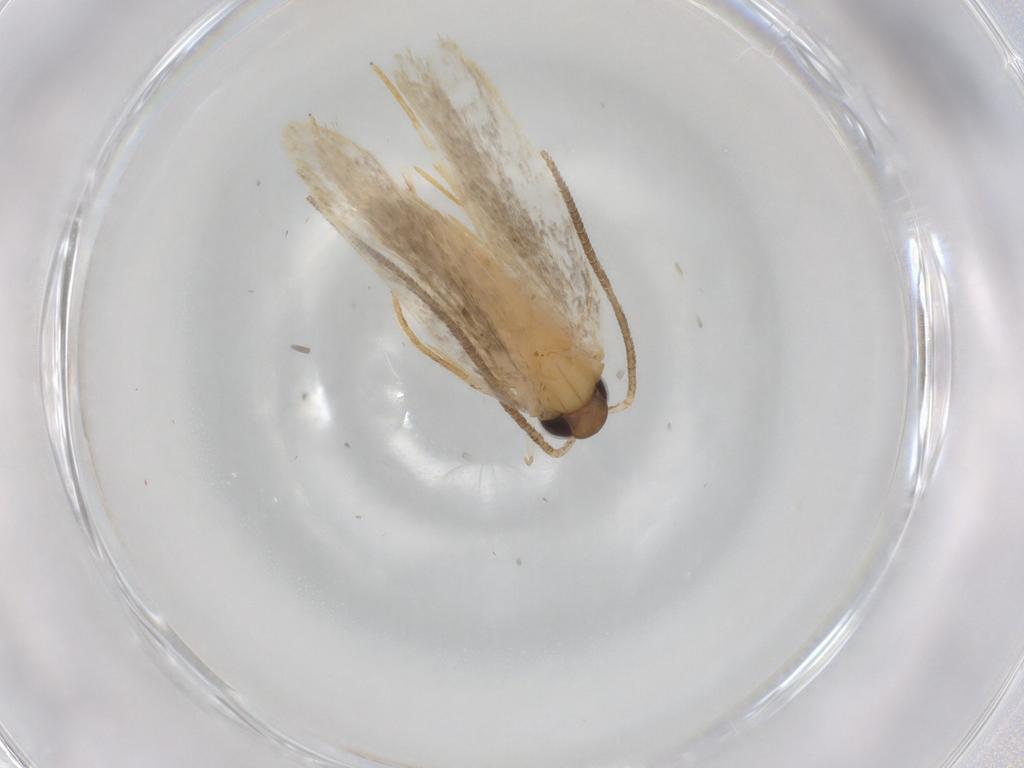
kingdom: Animalia
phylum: Arthropoda
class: Insecta
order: Lepidoptera
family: Autostichidae
